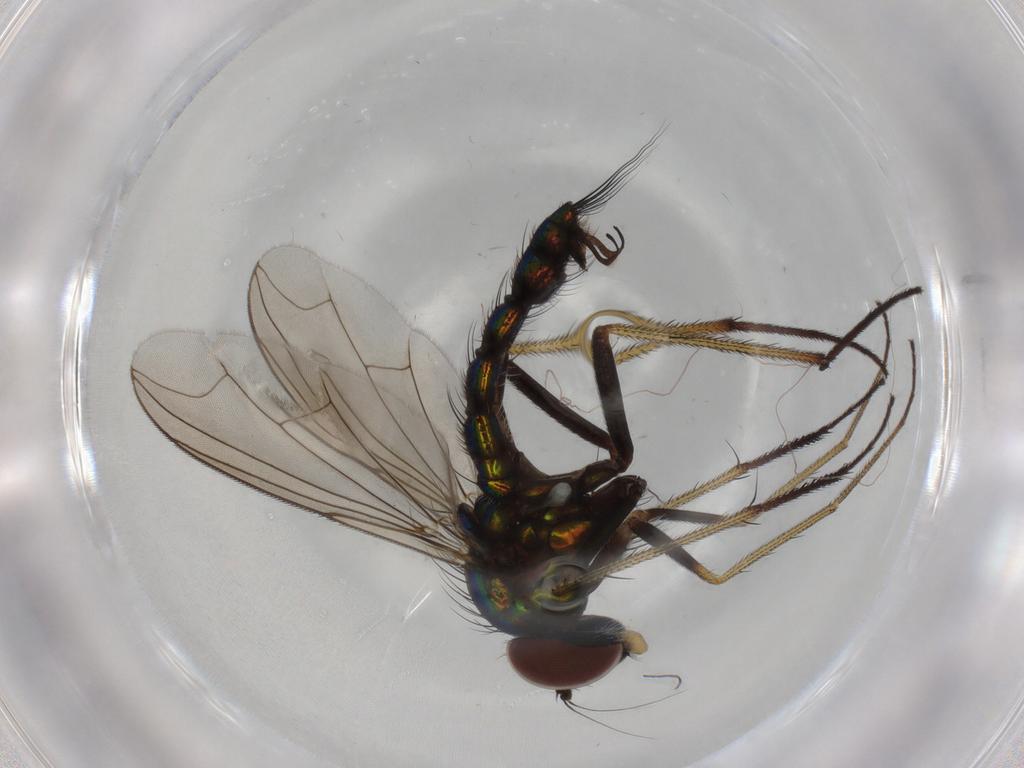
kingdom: Animalia
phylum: Arthropoda
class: Insecta
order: Diptera
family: Dolichopodidae
